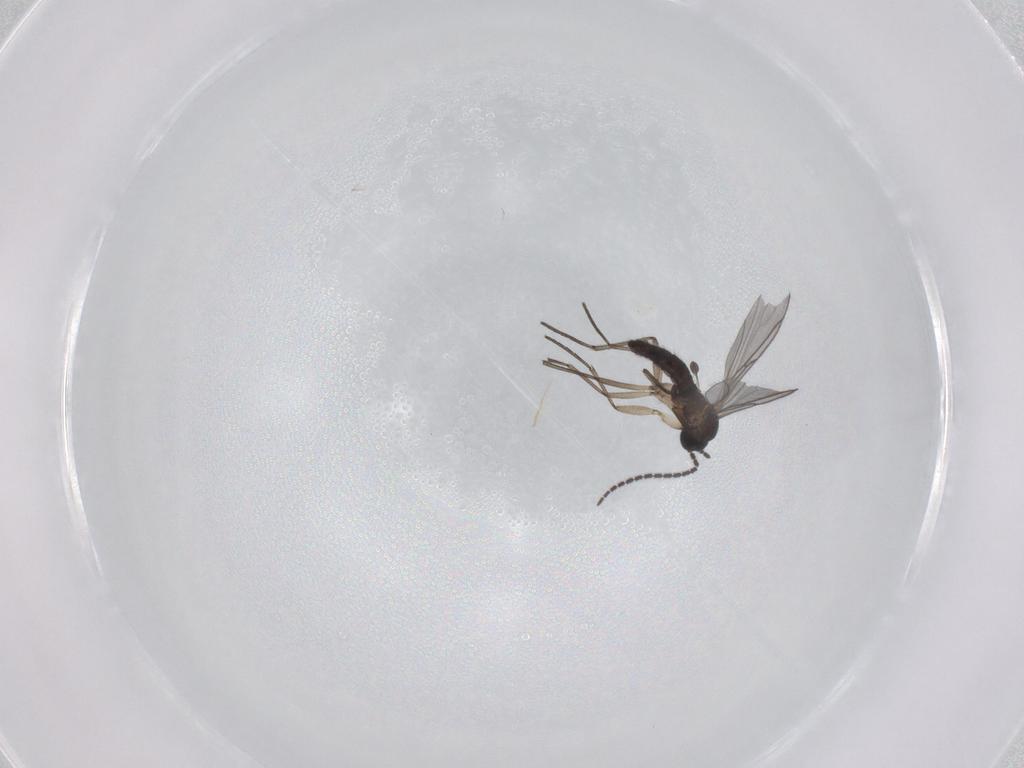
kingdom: Animalia
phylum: Arthropoda
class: Insecta
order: Diptera
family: Sciaridae
